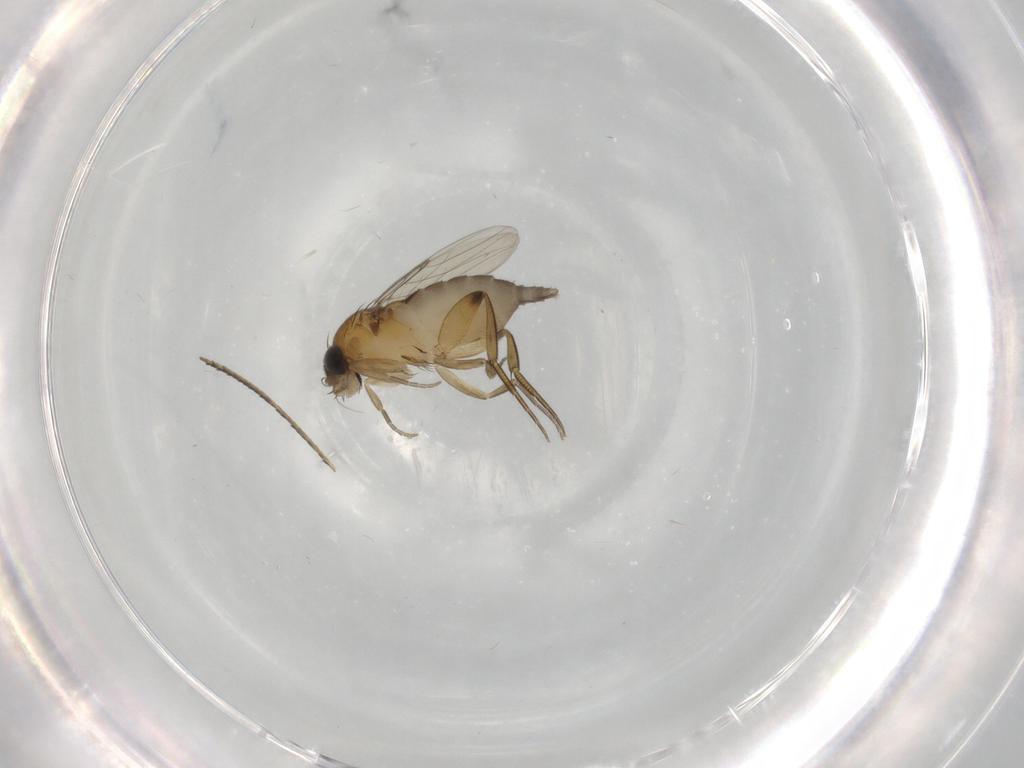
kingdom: Animalia
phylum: Arthropoda
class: Insecta
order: Diptera
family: Phoridae
